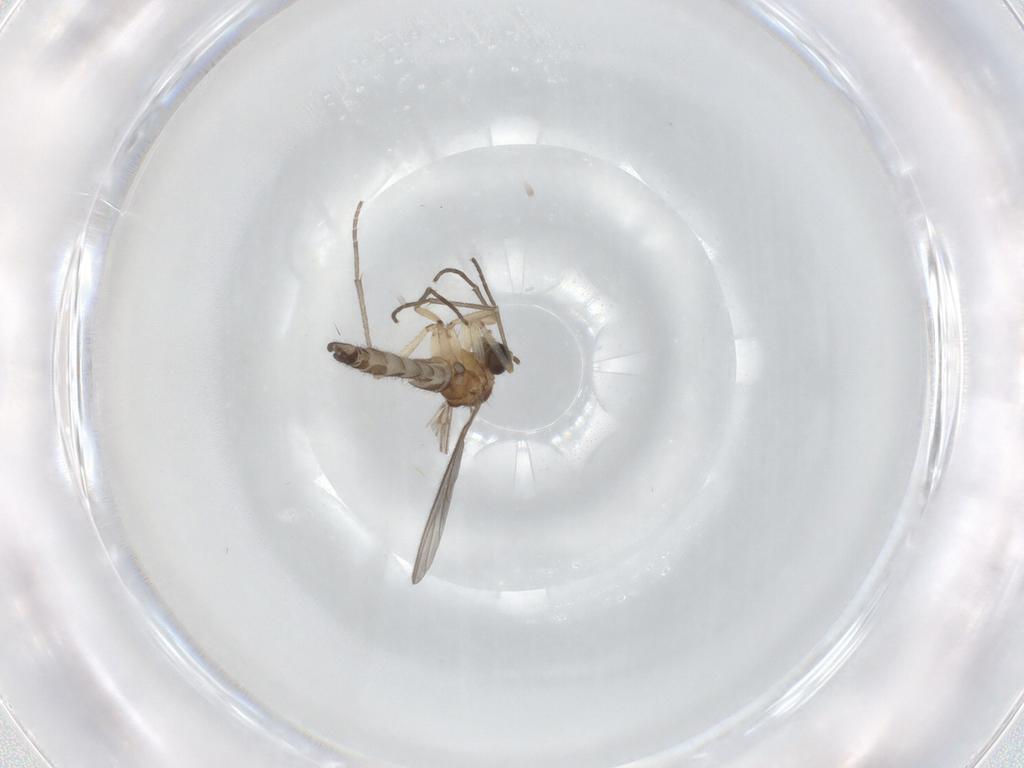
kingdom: Animalia
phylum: Arthropoda
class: Insecta
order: Diptera
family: Sciaridae
